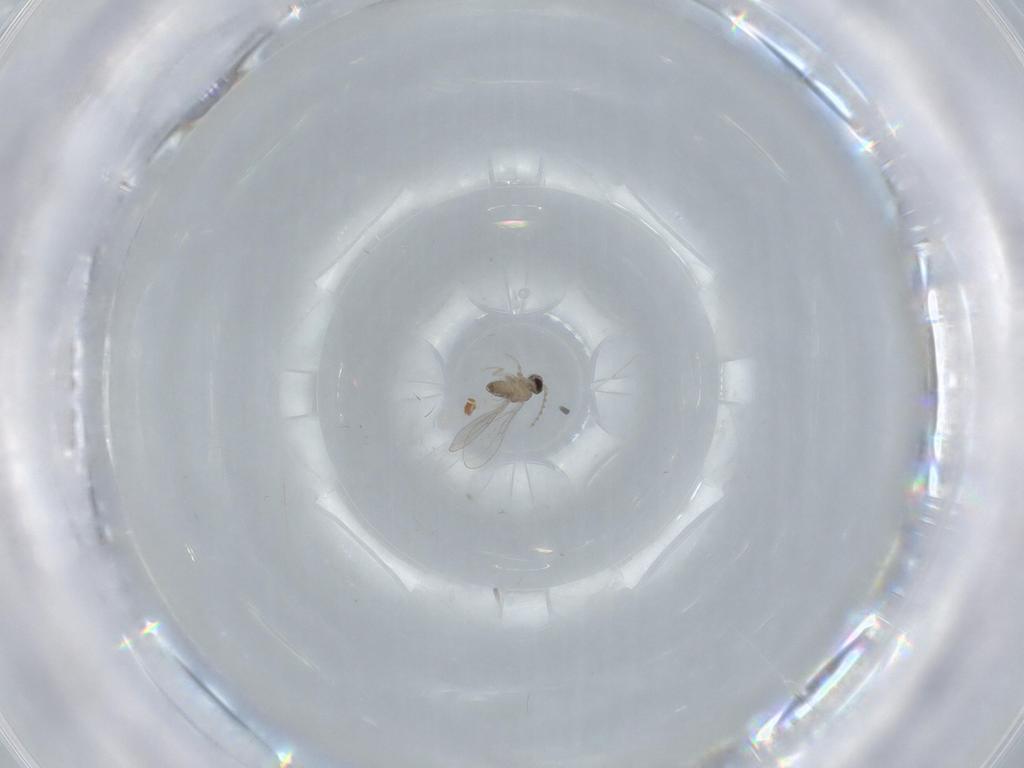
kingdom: Animalia
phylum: Arthropoda
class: Insecta
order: Diptera
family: Cecidomyiidae
